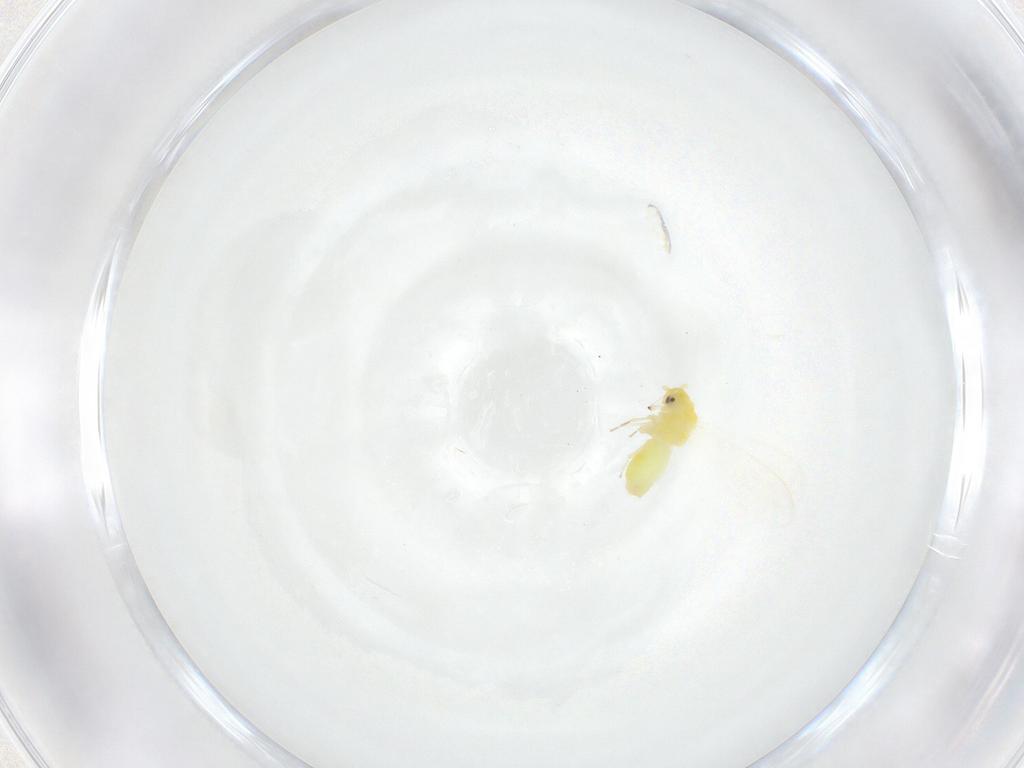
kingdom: Animalia
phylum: Arthropoda
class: Insecta
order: Hemiptera
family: Aleyrodidae
